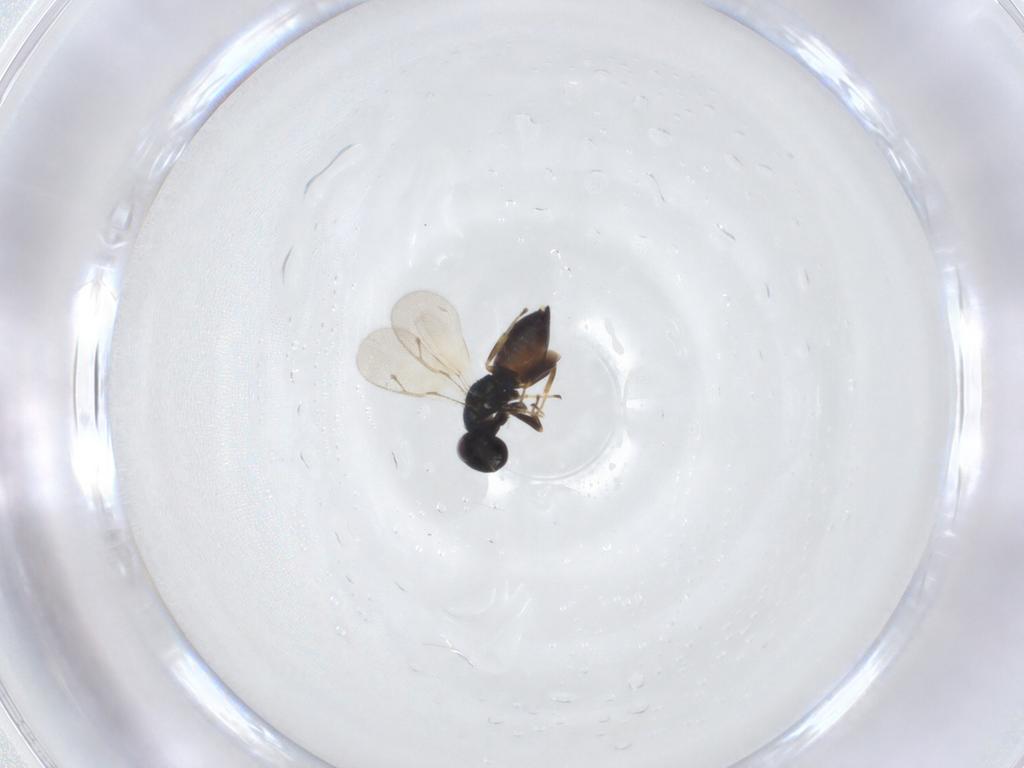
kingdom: Animalia
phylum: Arthropoda
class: Insecta
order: Hymenoptera
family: Pteromalidae
